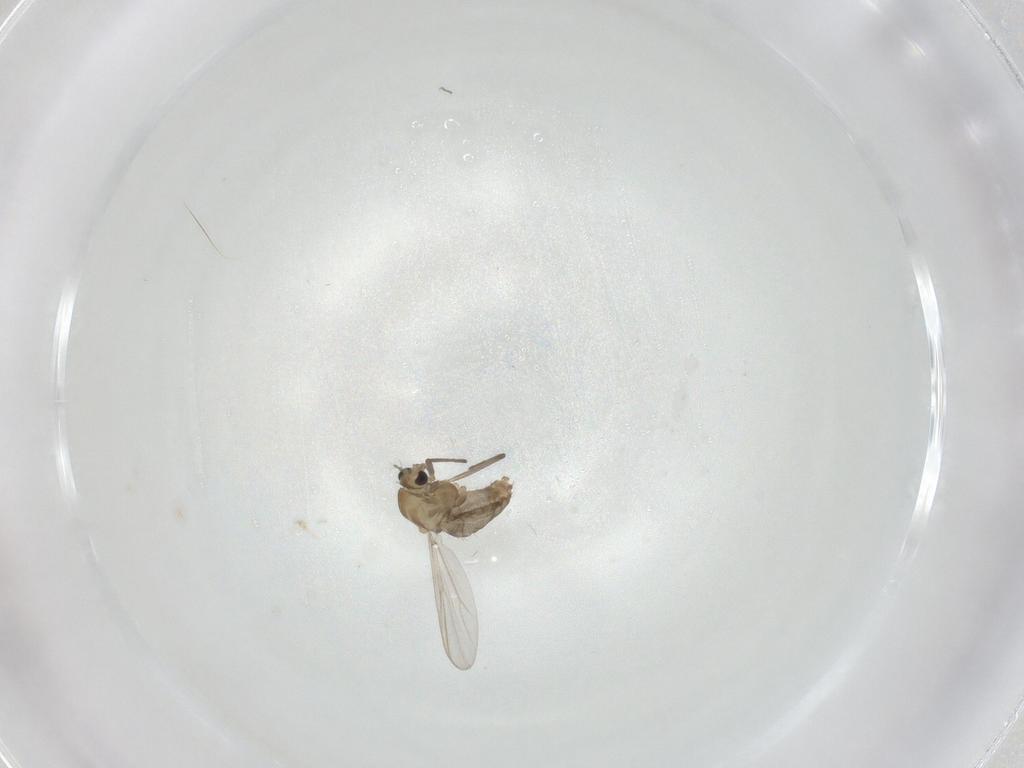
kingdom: Animalia
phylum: Arthropoda
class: Insecta
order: Diptera
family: Chironomidae
